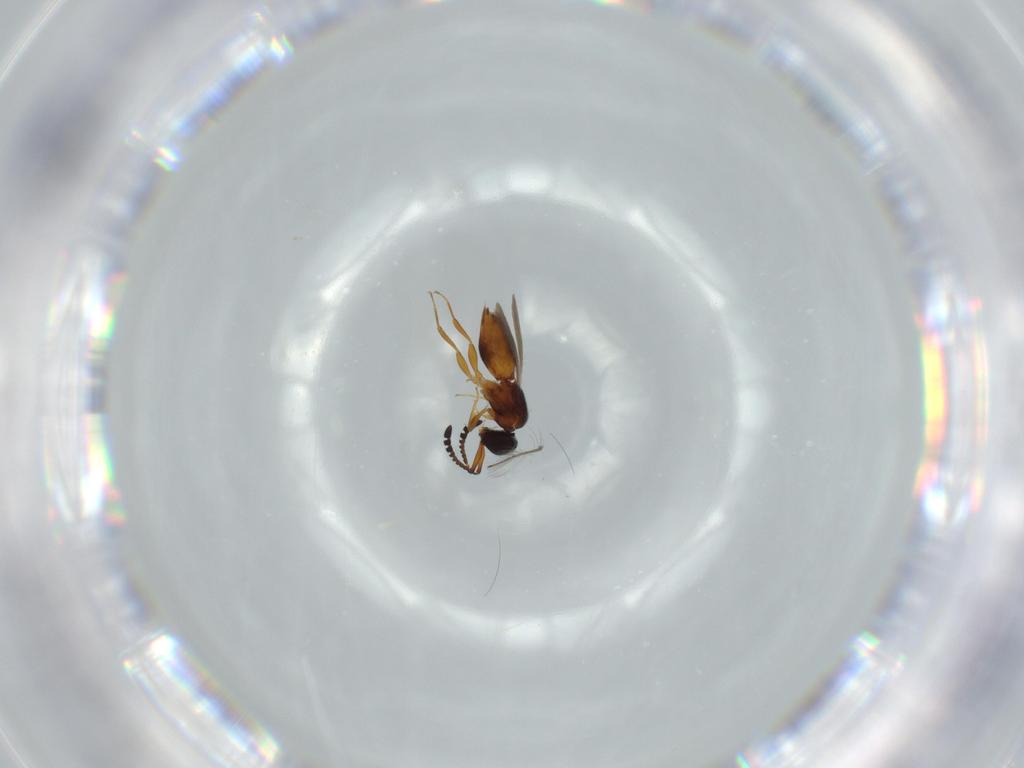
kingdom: Animalia
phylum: Arthropoda
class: Insecta
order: Hymenoptera
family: Ceraphronidae
